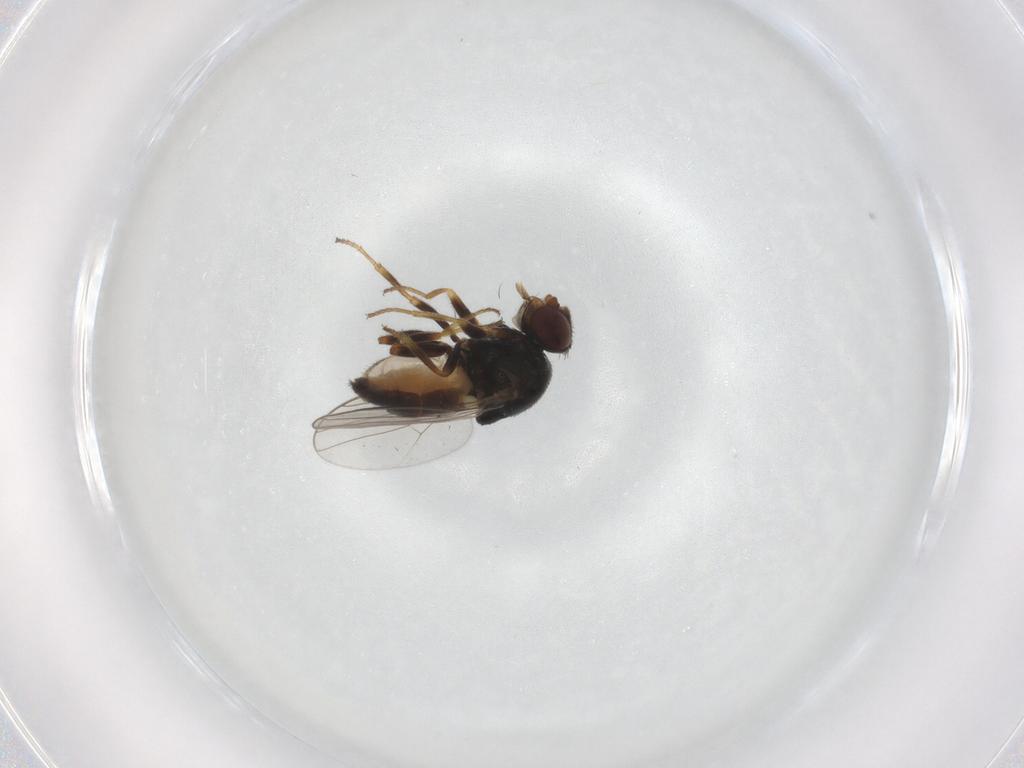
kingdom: Animalia
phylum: Arthropoda
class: Insecta
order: Diptera
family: Chloropidae
